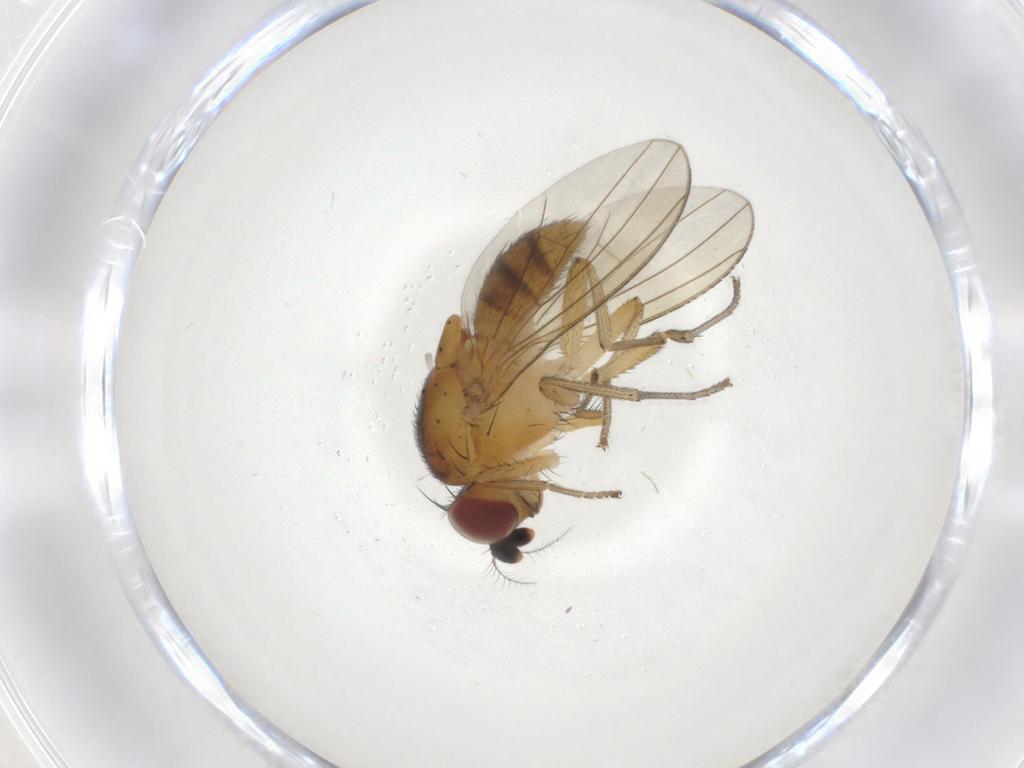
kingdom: Animalia
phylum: Arthropoda
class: Insecta
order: Diptera
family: Lauxaniidae
